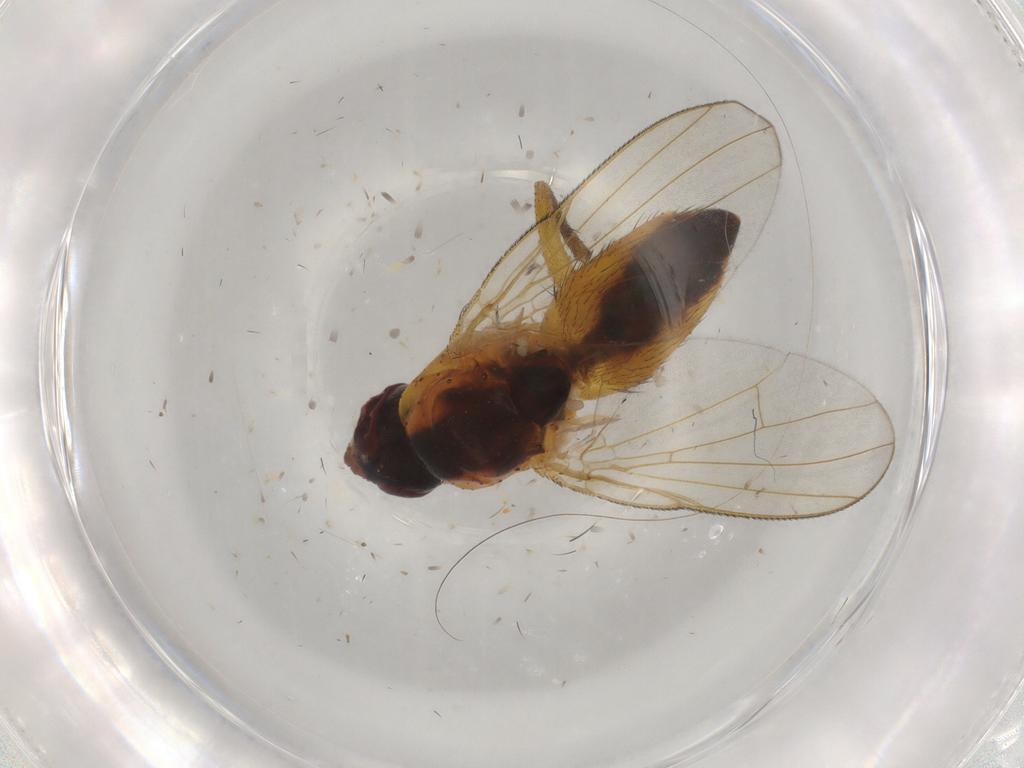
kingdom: Animalia
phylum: Arthropoda
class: Insecta
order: Diptera
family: Muscidae
